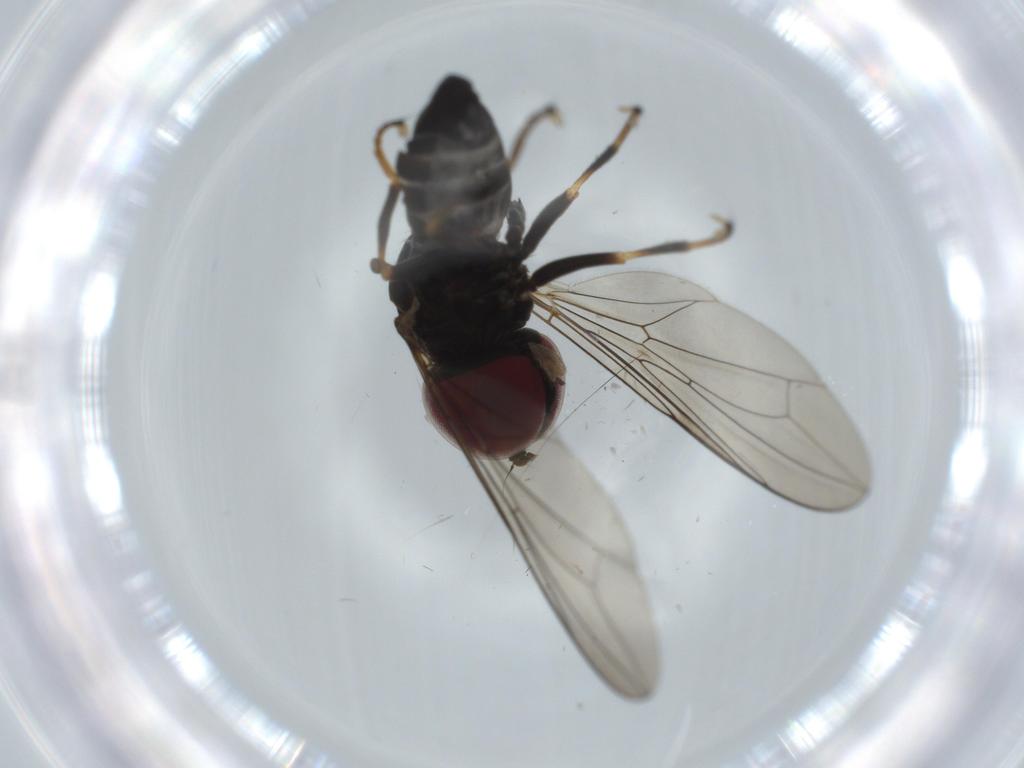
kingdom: Animalia
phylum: Arthropoda
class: Insecta
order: Diptera
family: Pipunculidae
